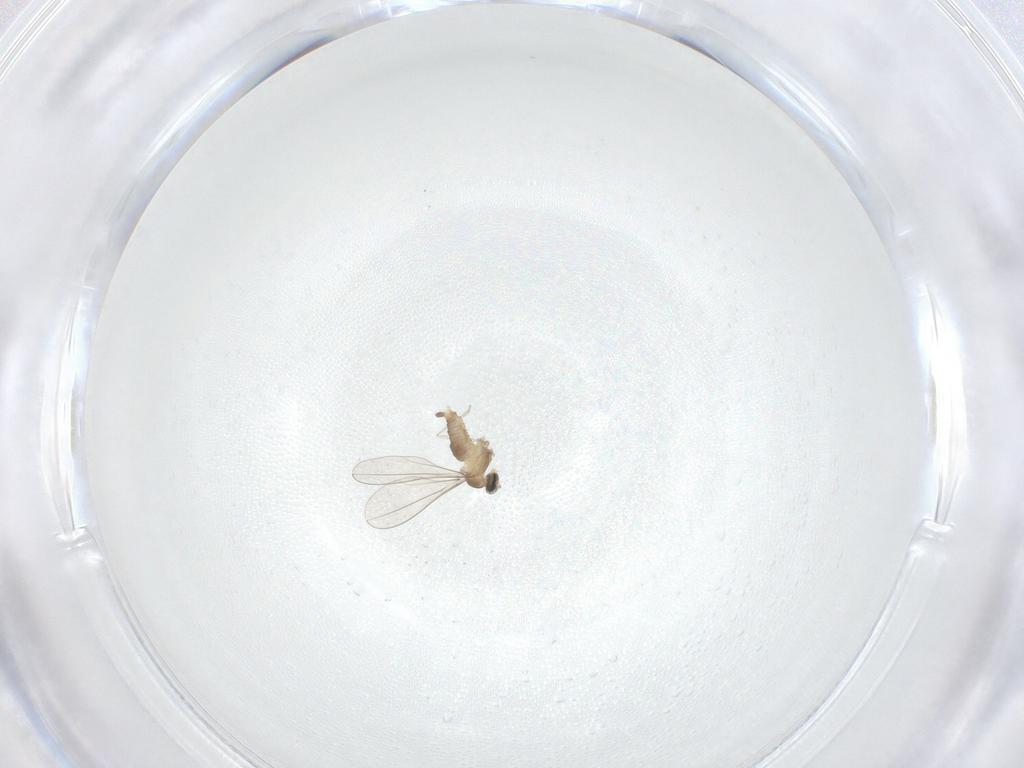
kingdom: Animalia
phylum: Arthropoda
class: Insecta
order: Diptera
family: Cecidomyiidae
